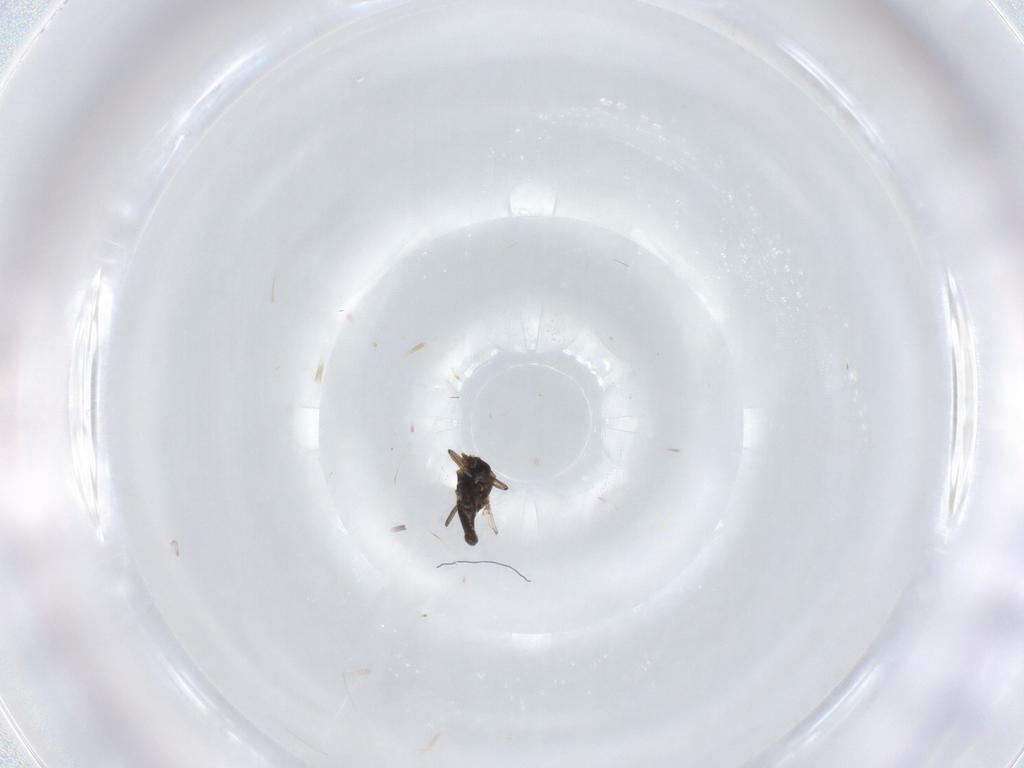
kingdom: Animalia
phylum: Arthropoda
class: Insecta
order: Diptera
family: Ceratopogonidae
